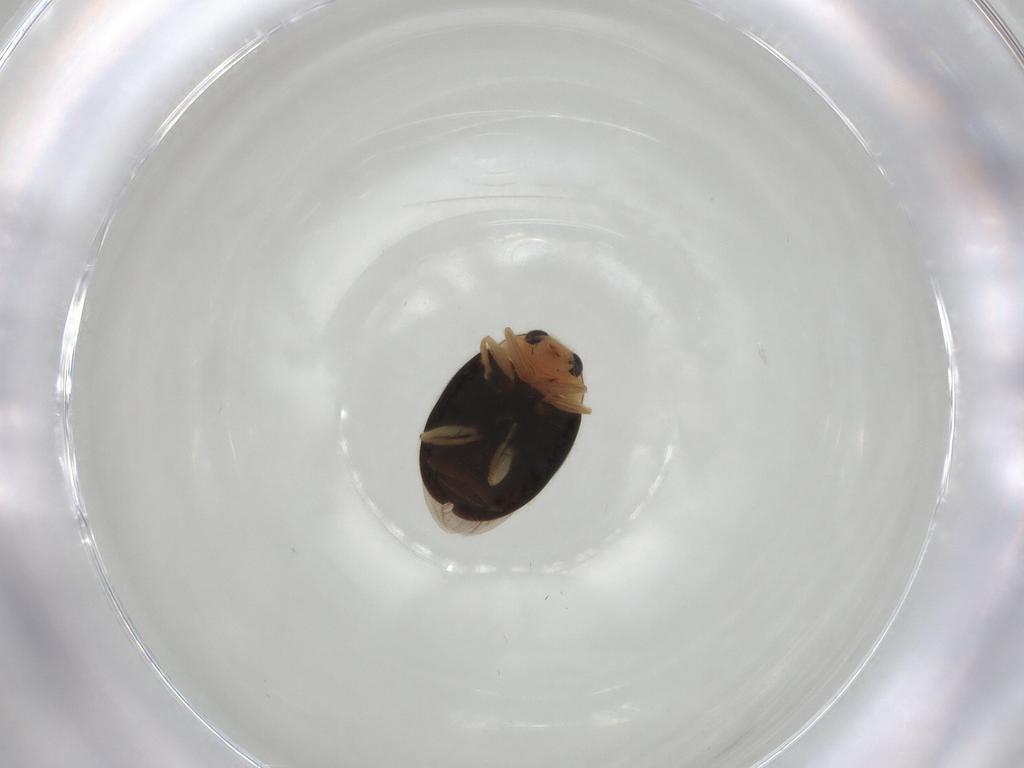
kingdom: Animalia
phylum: Arthropoda
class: Insecta
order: Coleoptera
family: Coccinellidae
